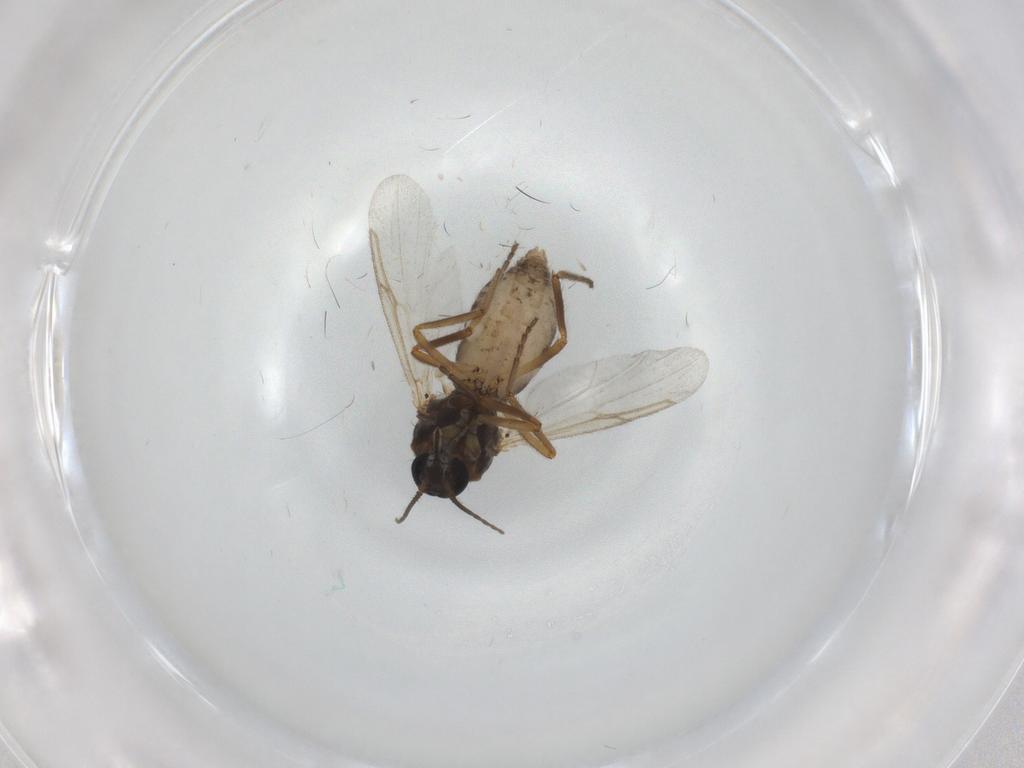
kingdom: Animalia
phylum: Arthropoda
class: Insecta
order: Diptera
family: Ceratopogonidae
